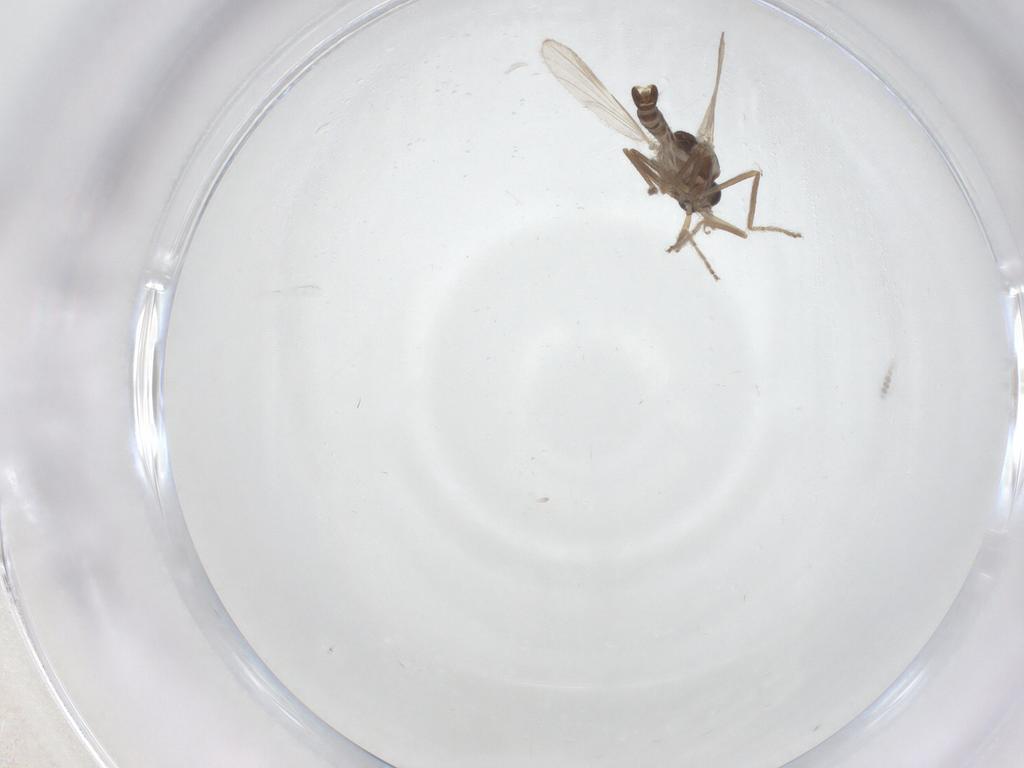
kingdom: Animalia
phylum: Arthropoda
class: Insecta
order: Diptera
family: Ceratopogonidae
